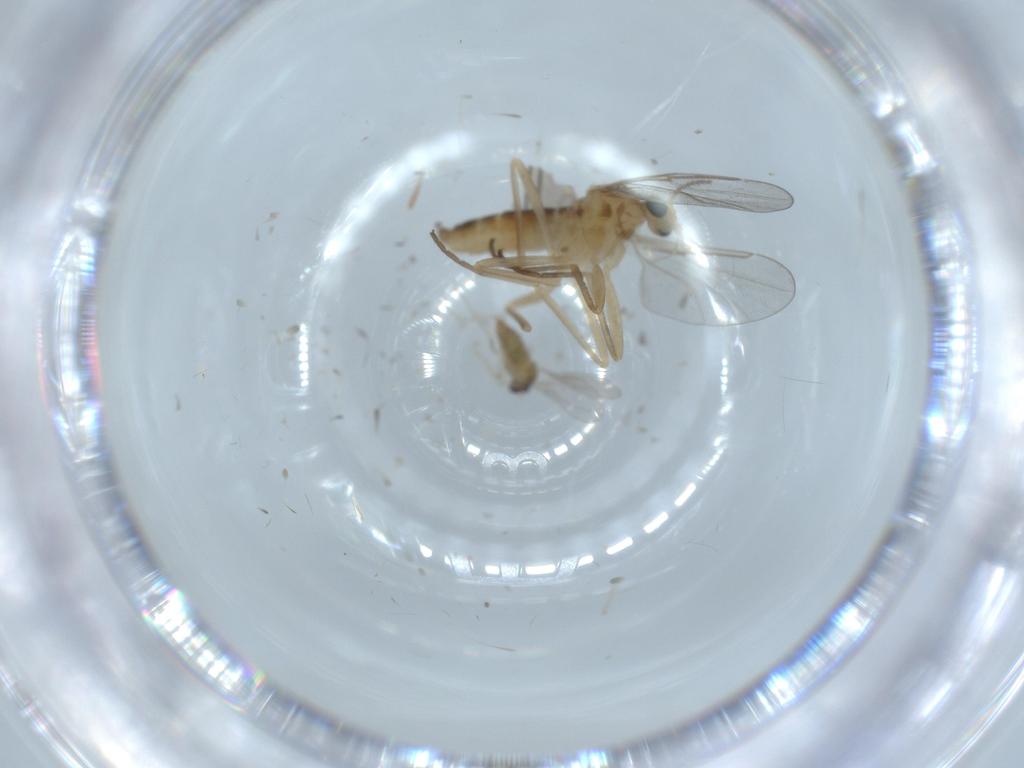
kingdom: Animalia
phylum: Arthropoda
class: Insecta
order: Diptera
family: Cecidomyiidae
